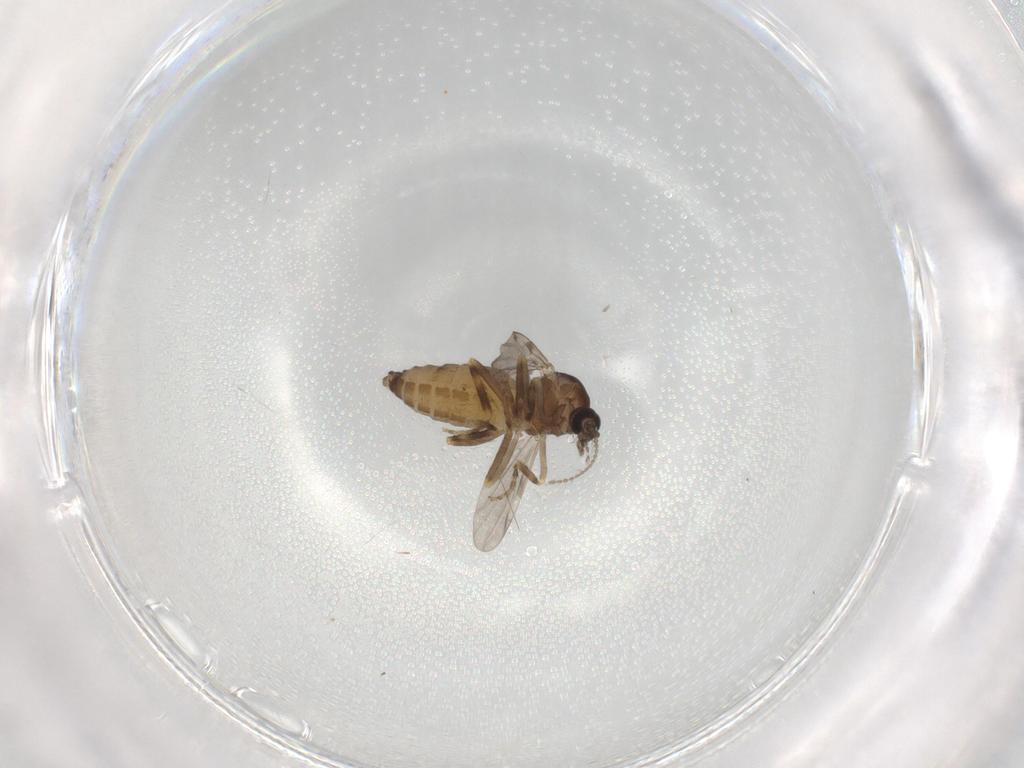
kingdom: Animalia
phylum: Arthropoda
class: Insecta
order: Diptera
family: Ceratopogonidae
